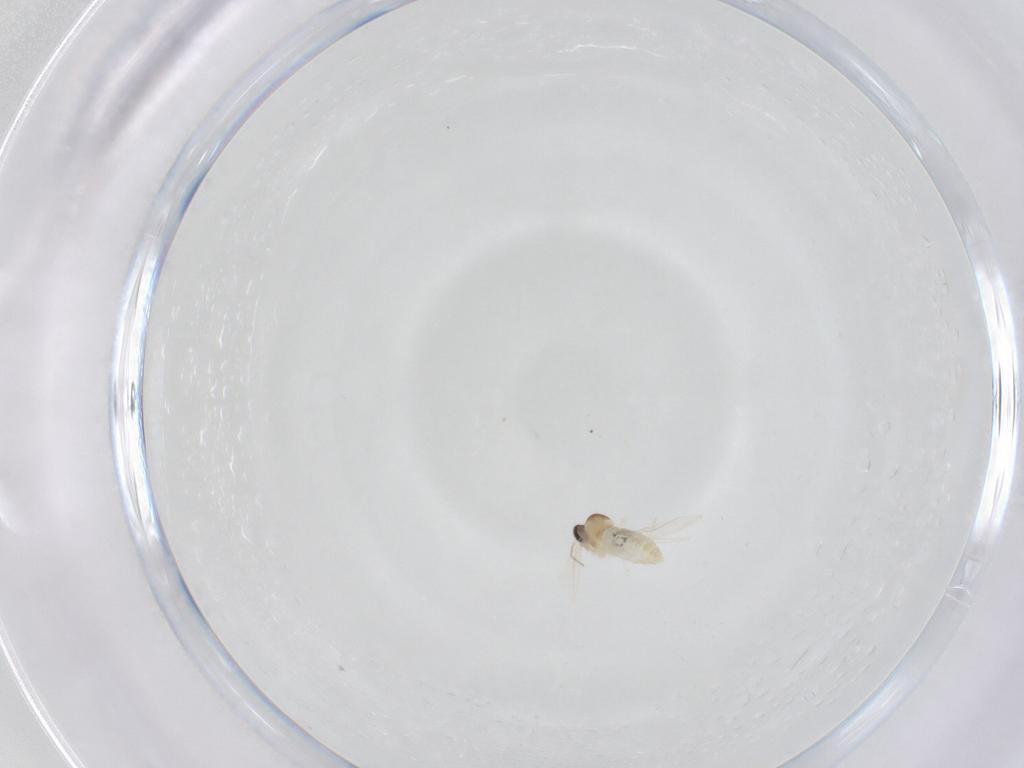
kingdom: Animalia
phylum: Arthropoda
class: Insecta
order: Diptera
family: Cecidomyiidae
